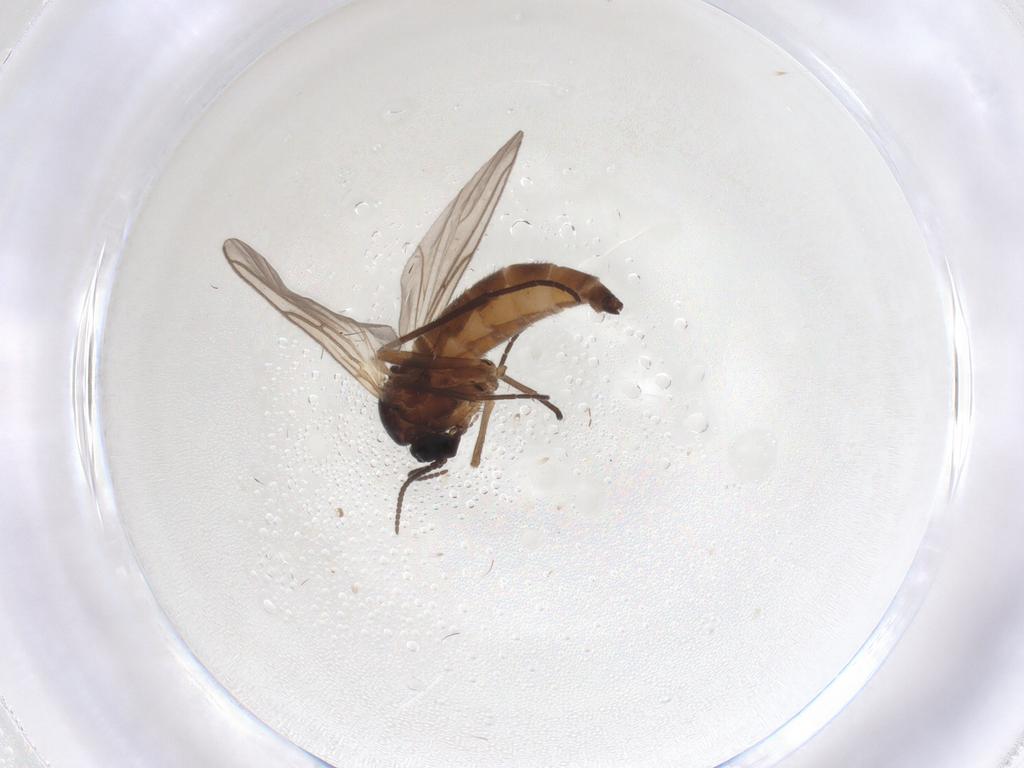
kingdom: Animalia
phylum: Arthropoda
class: Insecta
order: Diptera
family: Sciaridae
